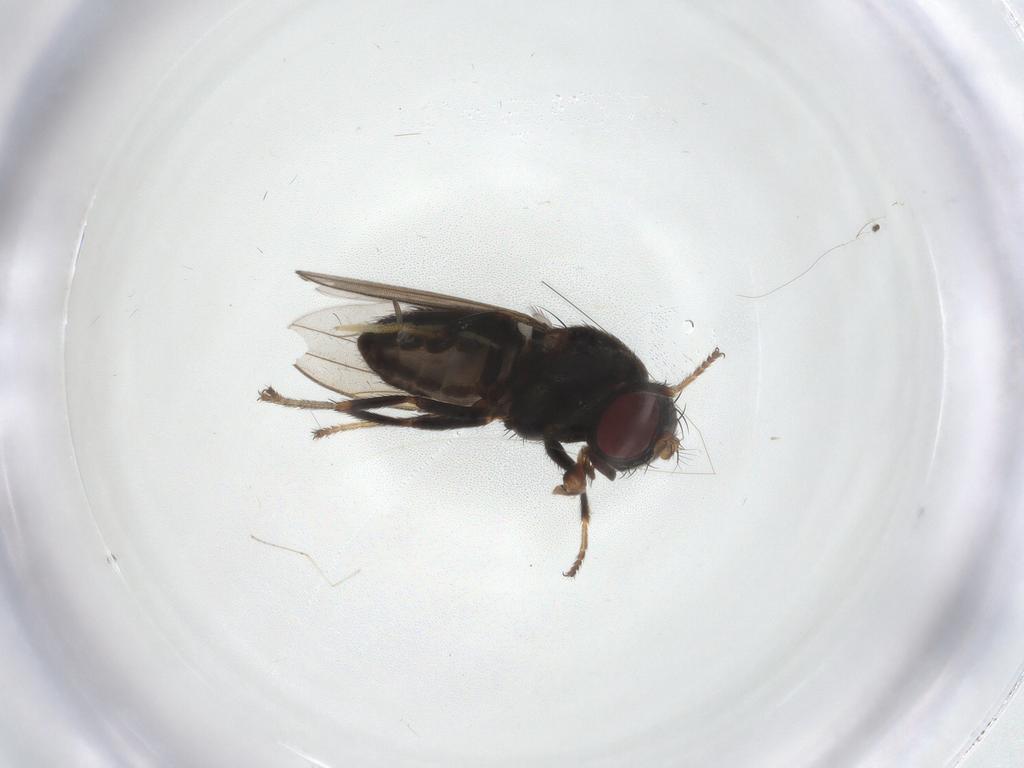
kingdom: Animalia
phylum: Arthropoda
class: Insecta
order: Diptera
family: Ephydridae
